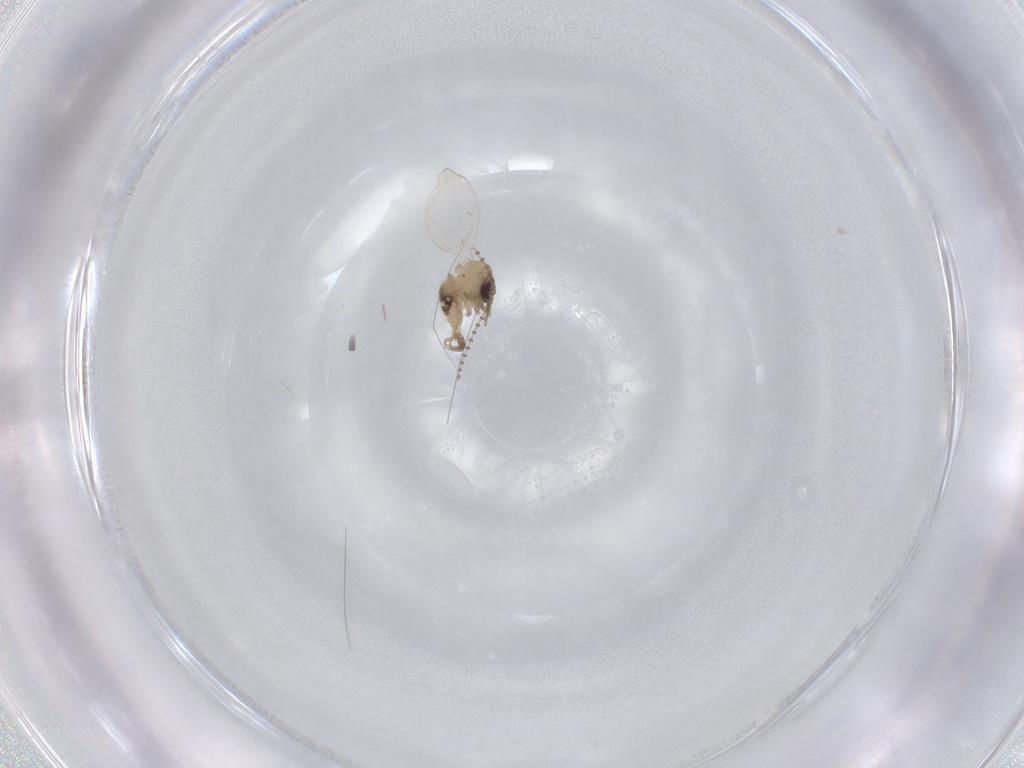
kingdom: Animalia
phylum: Arthropoda
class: Insecta
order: Diptera
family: Psychodidae
